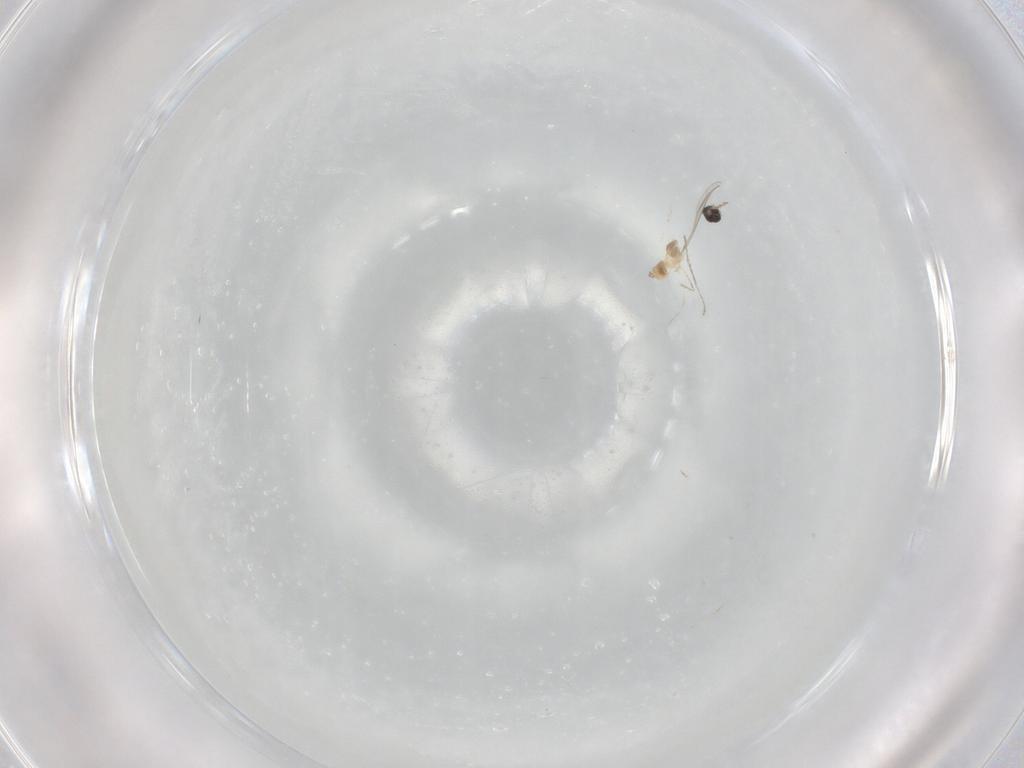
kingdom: Animalia
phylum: Arthropoda
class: Insecta
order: Diptera
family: Cecidomyiidae
